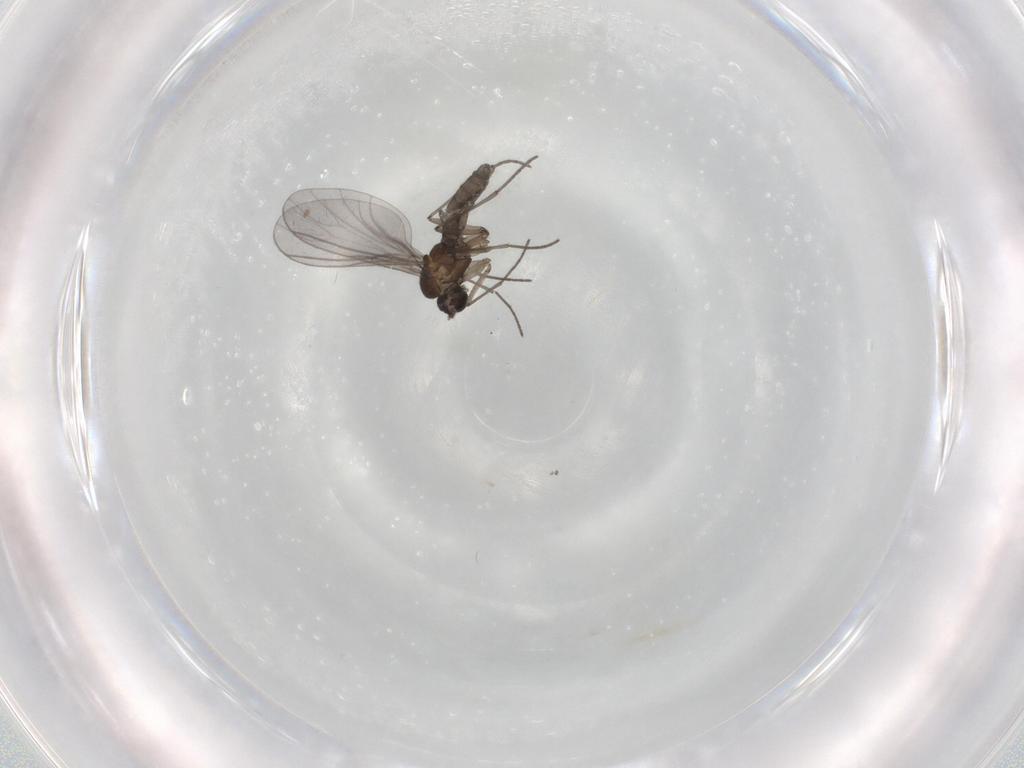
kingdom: Animalia
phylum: Arthropoda
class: Insecta
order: Diptera
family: Sciaridae
